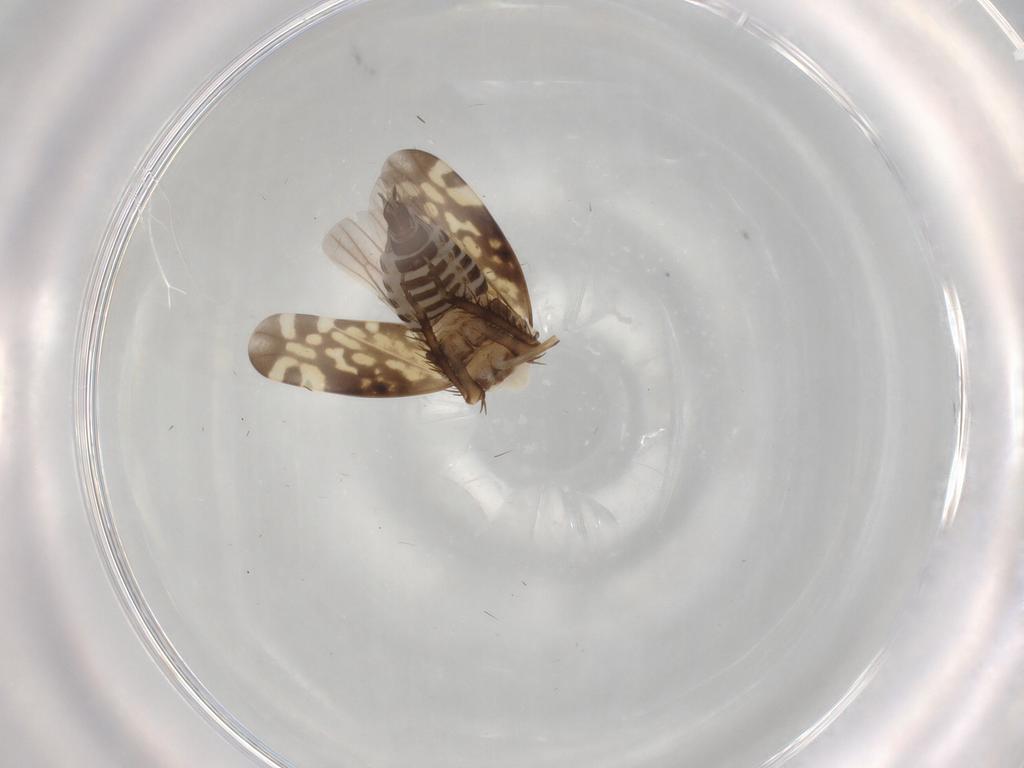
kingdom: Animalia
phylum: Arthropoda
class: Insecta
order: Hemiptera
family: Cicadellidae
